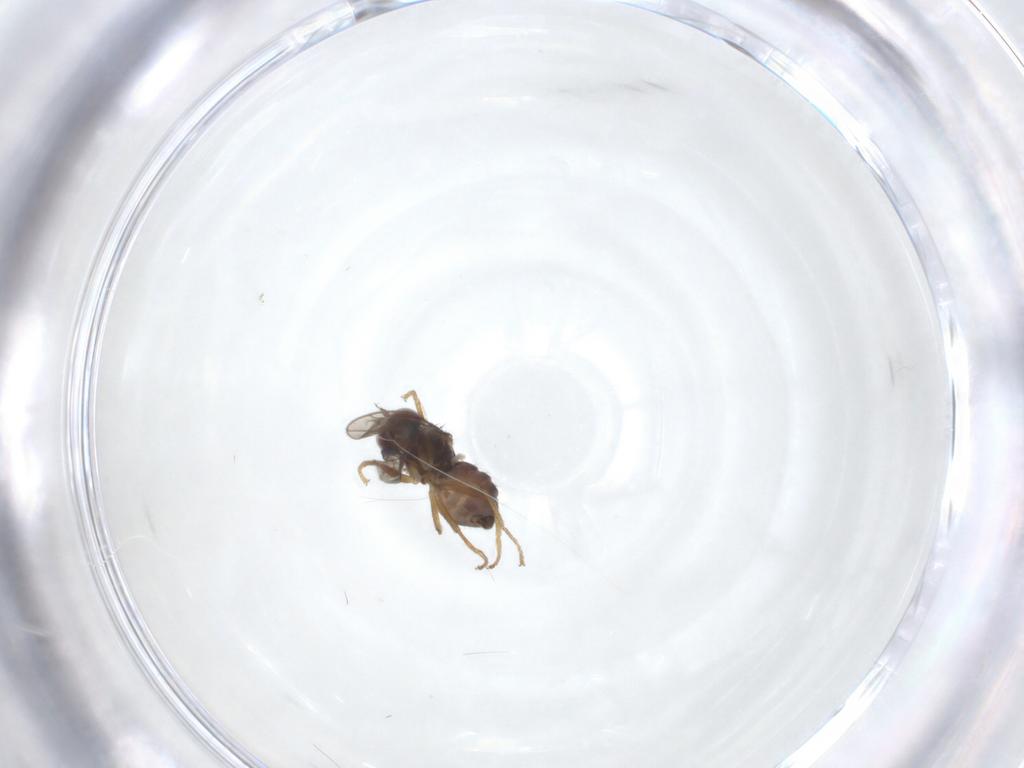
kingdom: Animalia
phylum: Arthropoda
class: Insecta
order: Diptera
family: Ephydridae
